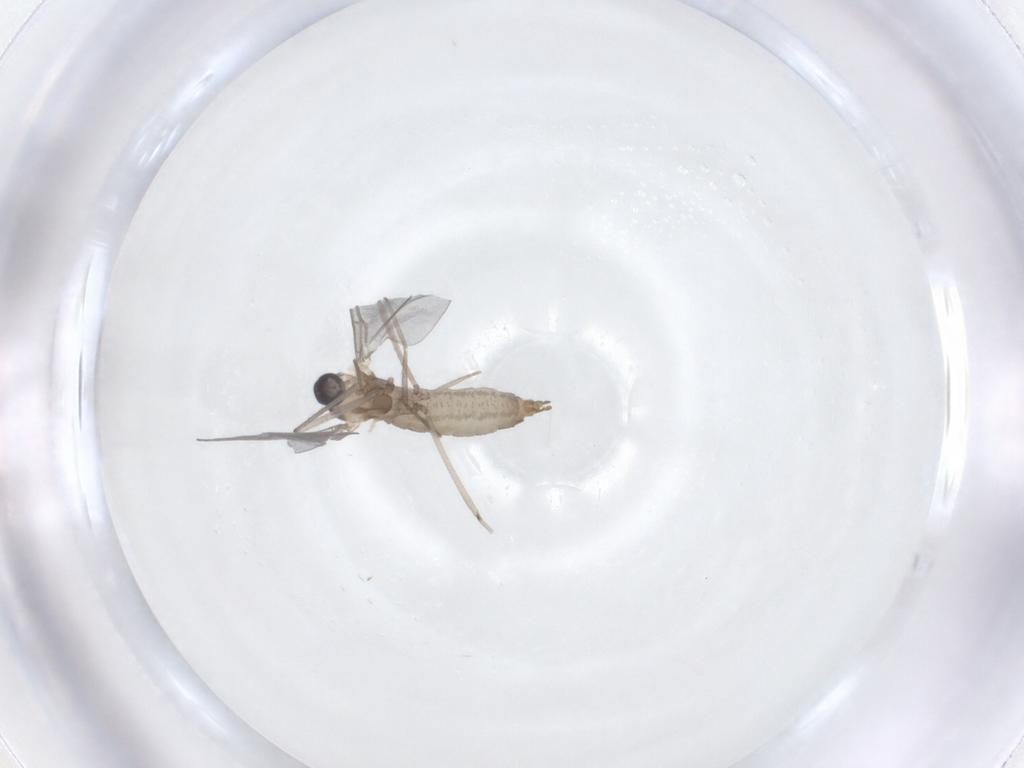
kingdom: Animalia
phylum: Arthropoda
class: Insecta
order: Diptera
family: Cecidomyiidae
